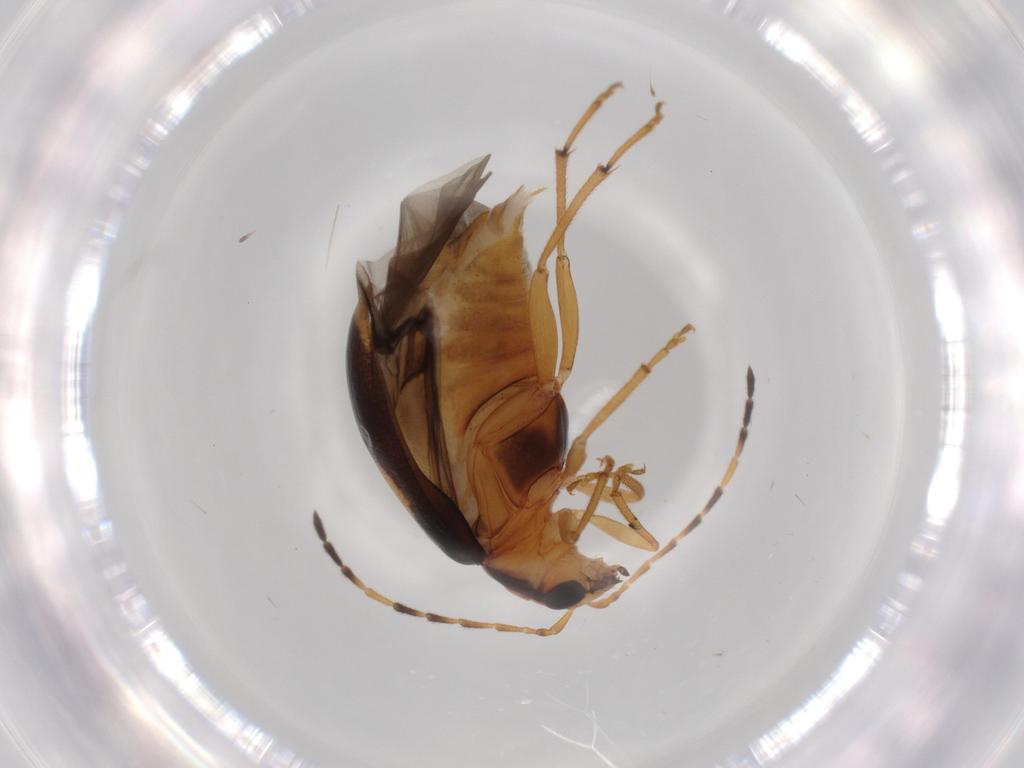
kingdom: Animalia
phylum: Arthropoda
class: Insecta
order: Coleoptera
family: Chrysomelidae
